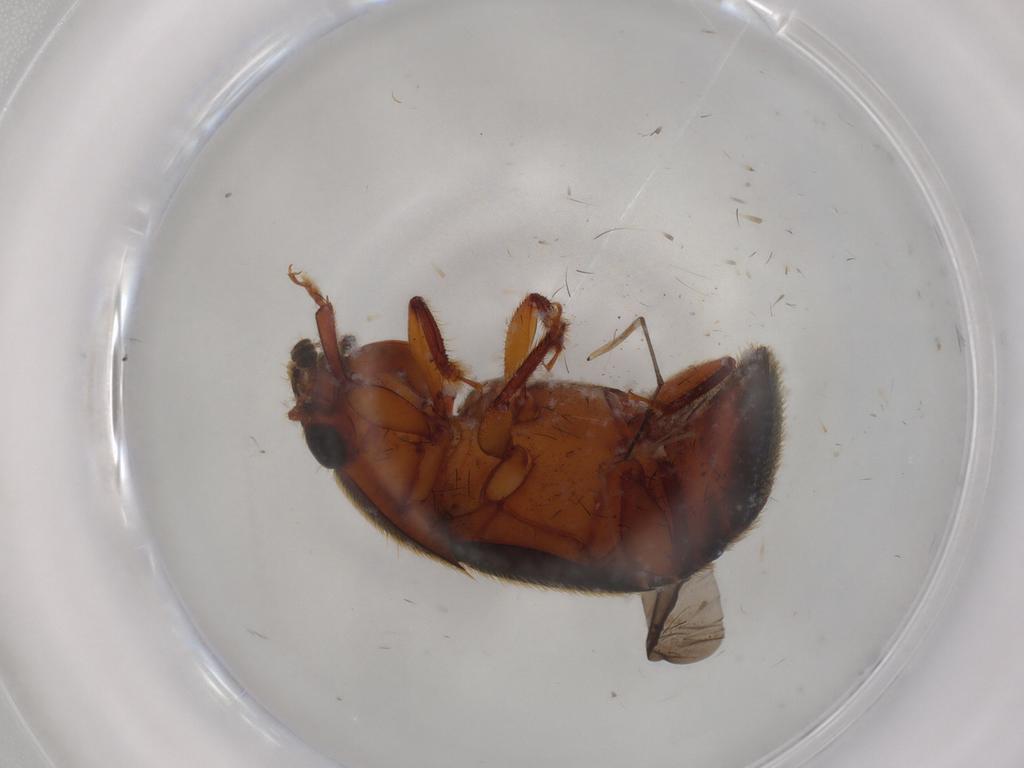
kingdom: Animalia
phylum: Arthropoda
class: Insecta
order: Coleoptera
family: Nitidulidae
